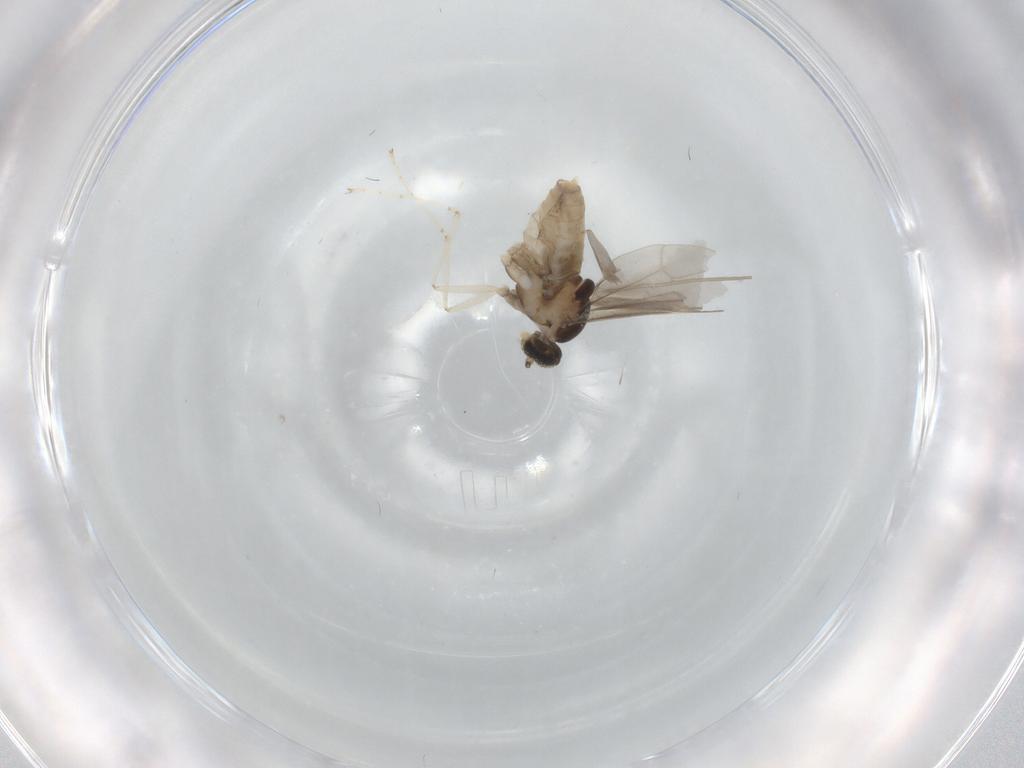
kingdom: Animalia
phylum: Arthropoda
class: Insecta
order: Diptera
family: Cecidomyiidae
